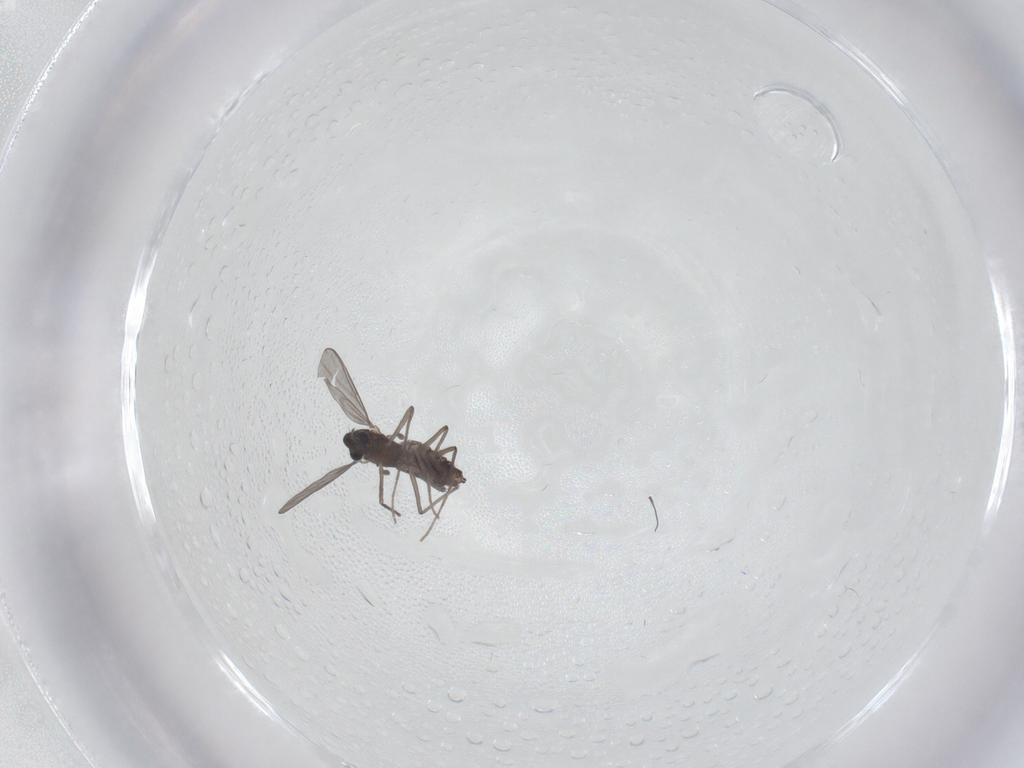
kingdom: Animalia
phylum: Arthropoda
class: Insecta
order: Diptera
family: Chironomidae
